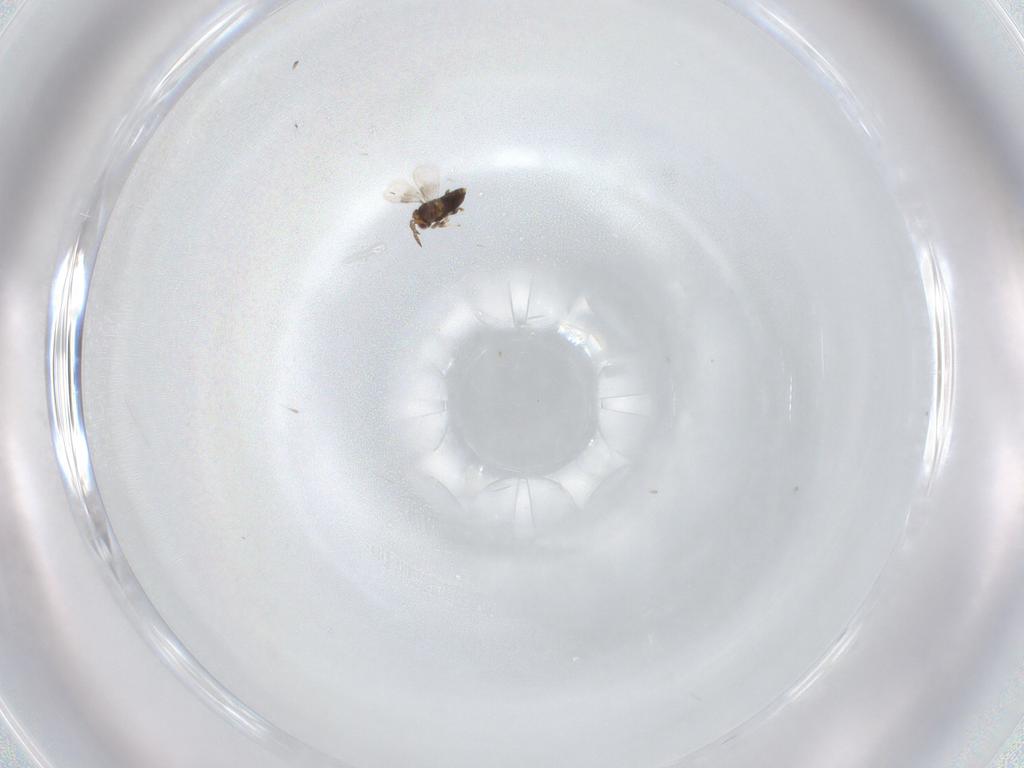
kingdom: Animalia
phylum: Arthropoda
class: Insecta
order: Hymenoptera
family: Aphelinidae
